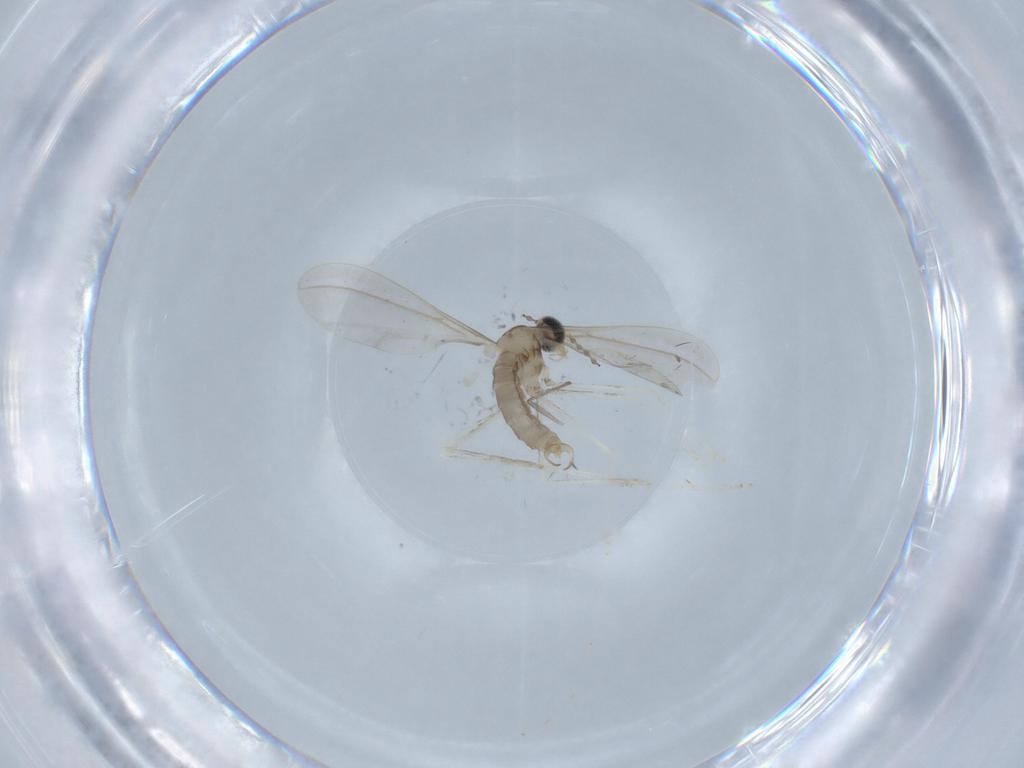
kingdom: Animalia
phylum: Arthropoda
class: Insecta
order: Diptera
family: Cecidomyiidae
